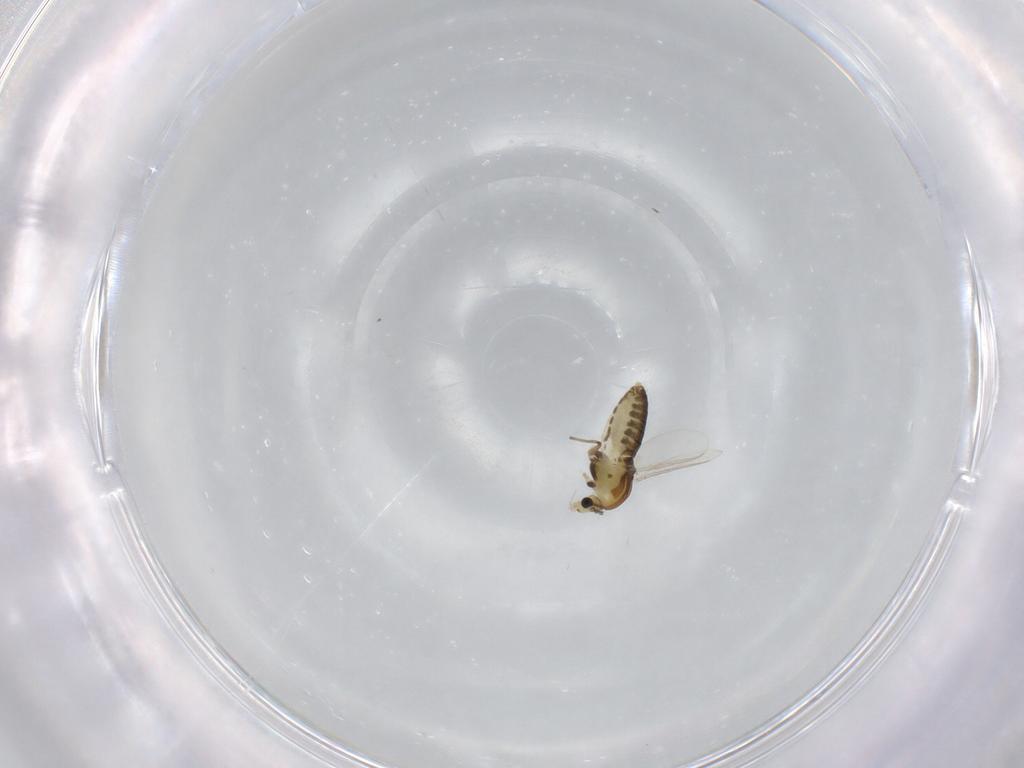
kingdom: Animalia
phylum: Arthropoda
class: Insecta
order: Diptera
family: Chironomidae
